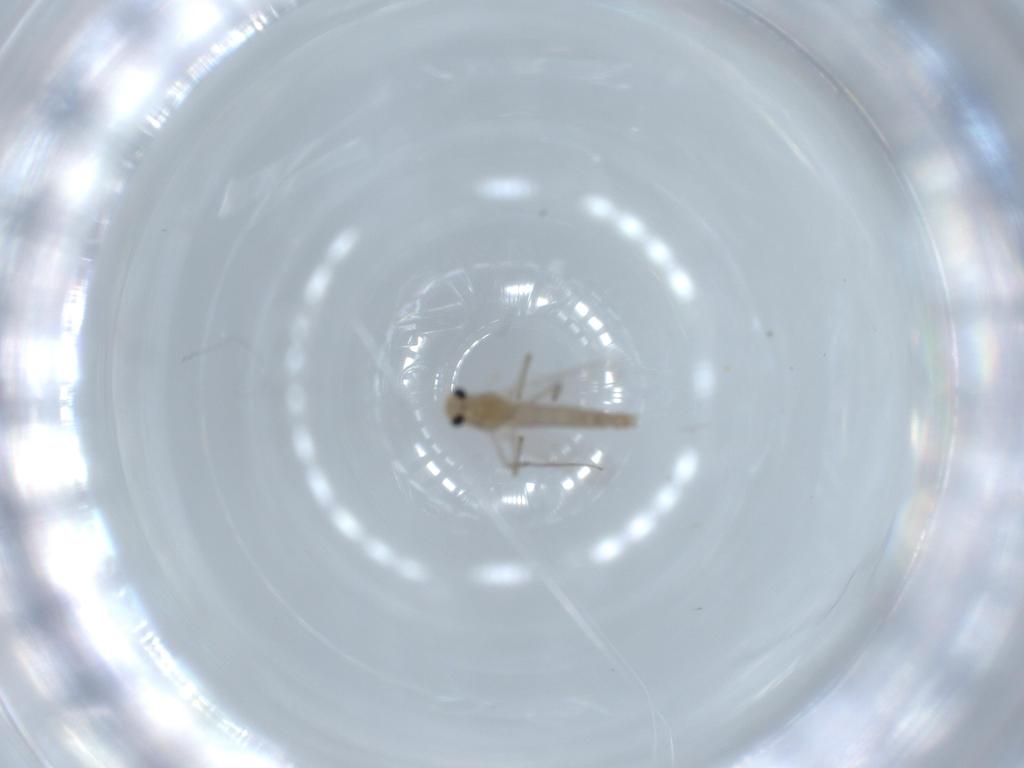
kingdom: Animalia
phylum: Arthropoda
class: Insecta
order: Diptera
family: Chironomidae
